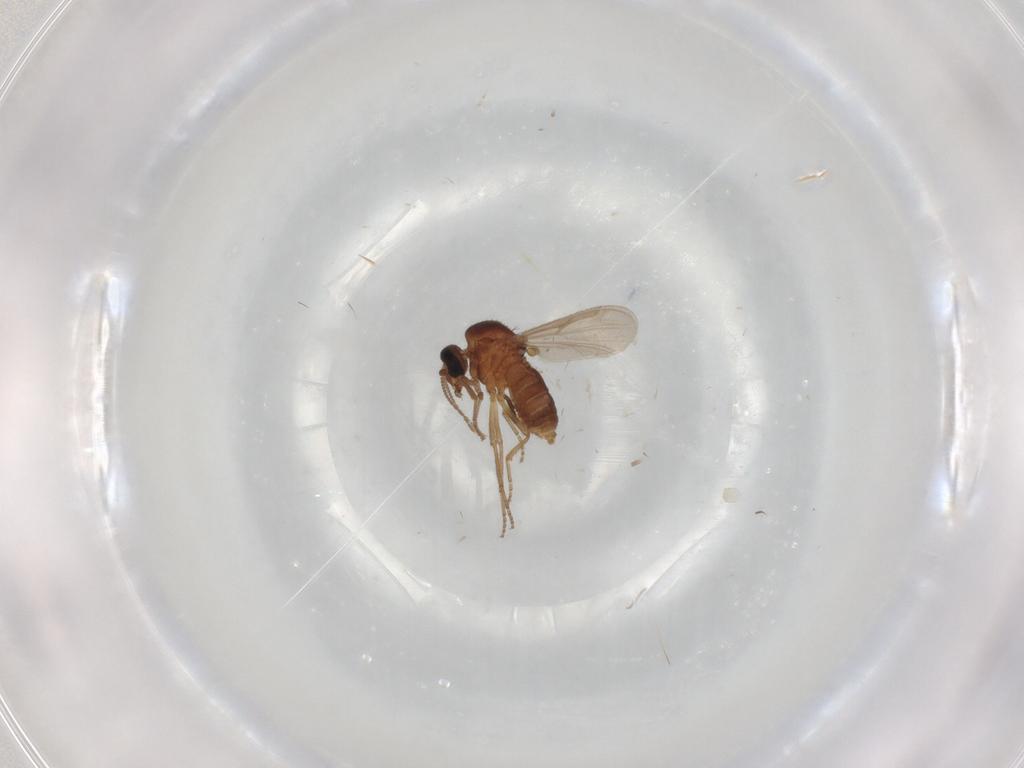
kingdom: Animalia
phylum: Arthropoda
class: Insecta
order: Diptera
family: Ceratopogonidae
